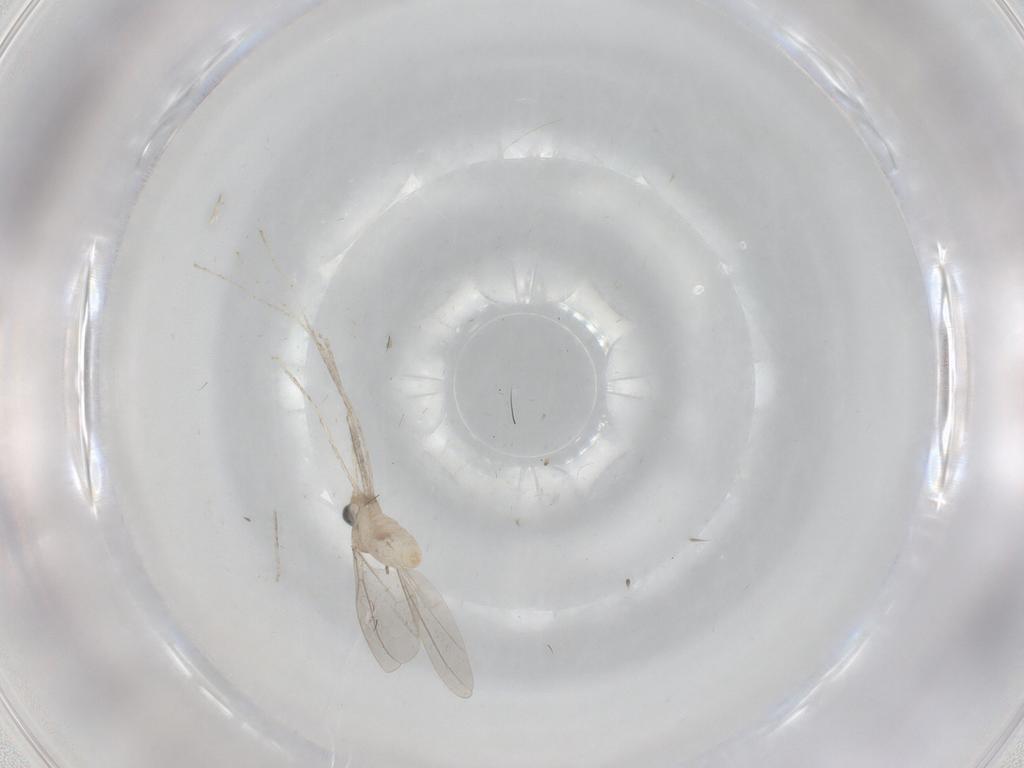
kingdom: Animalia
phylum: Arthropoda
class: Insecta
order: Diptera
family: Cecidomyiidae
